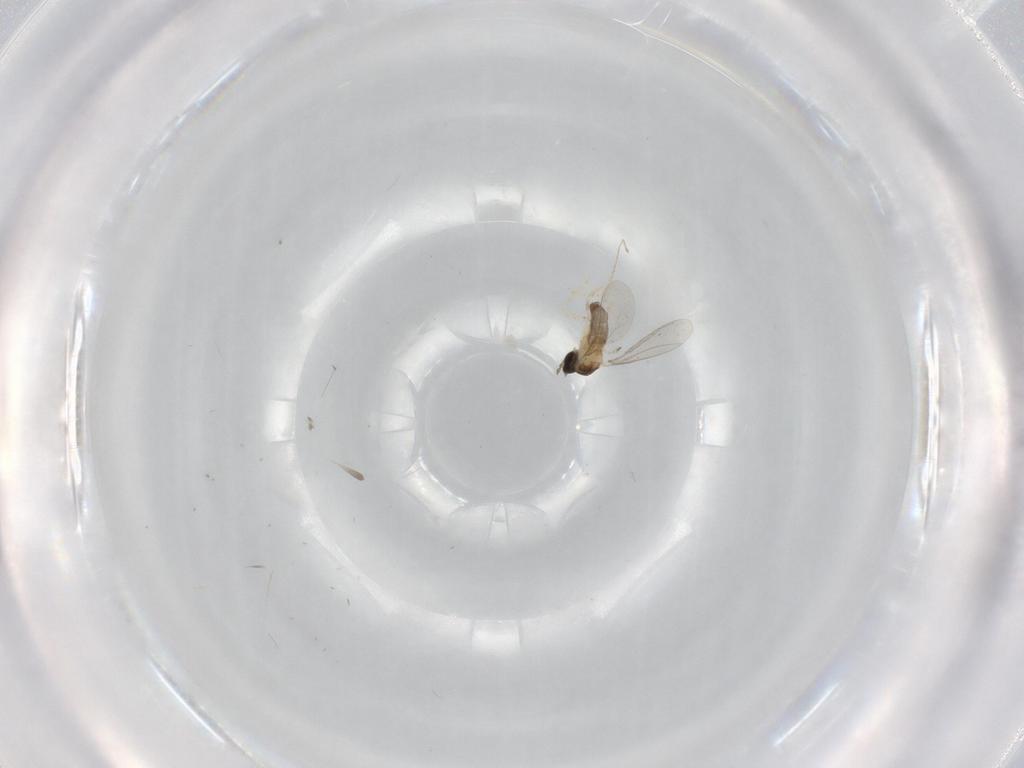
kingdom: Animalia
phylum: Arthropoda
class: Insecta
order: Diptera
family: Cecidomyiidae
